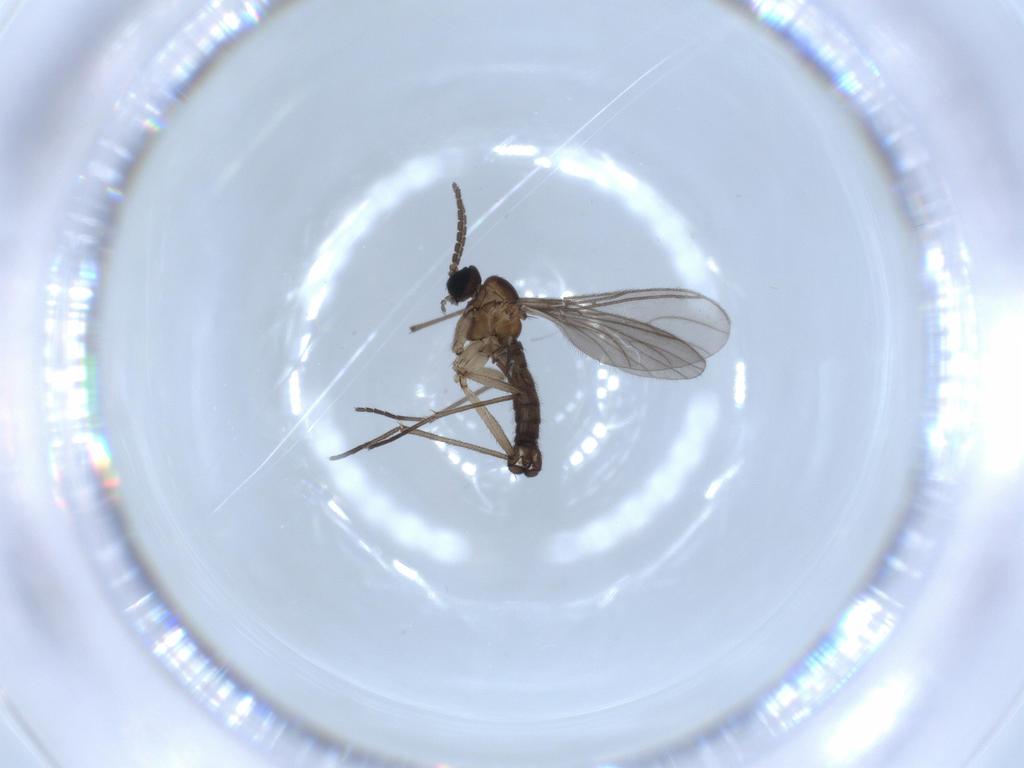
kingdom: Animalia
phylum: Arthropoda
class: Insecta
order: Diptera
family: Sciaridae
